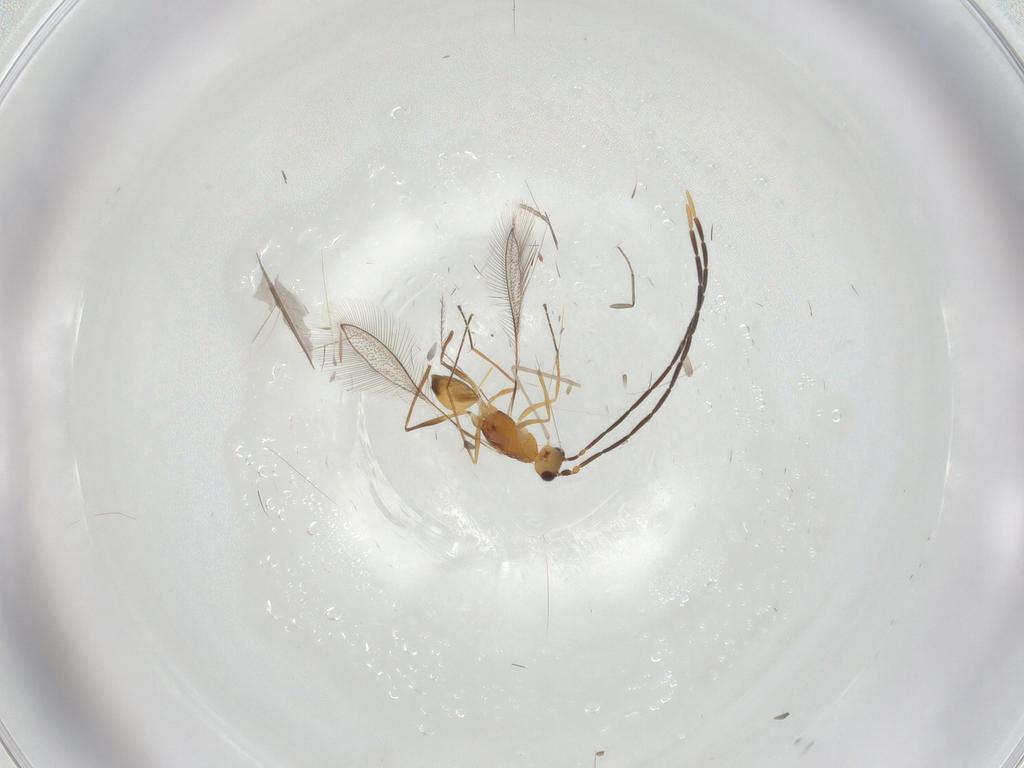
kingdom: Animalia
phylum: Arthropoda
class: Insecta
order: Hymenoptera
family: Mymaridae
